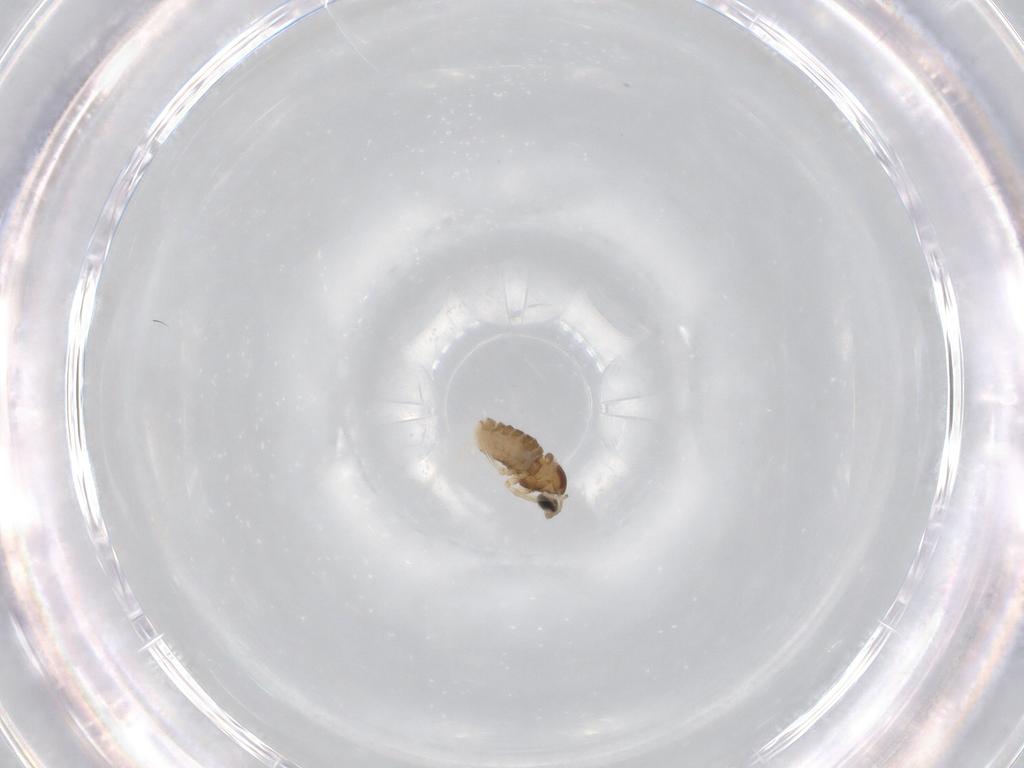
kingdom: Animalia
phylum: Arthropoda
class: Insecta
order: Diptera
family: Cecidomyiidae
